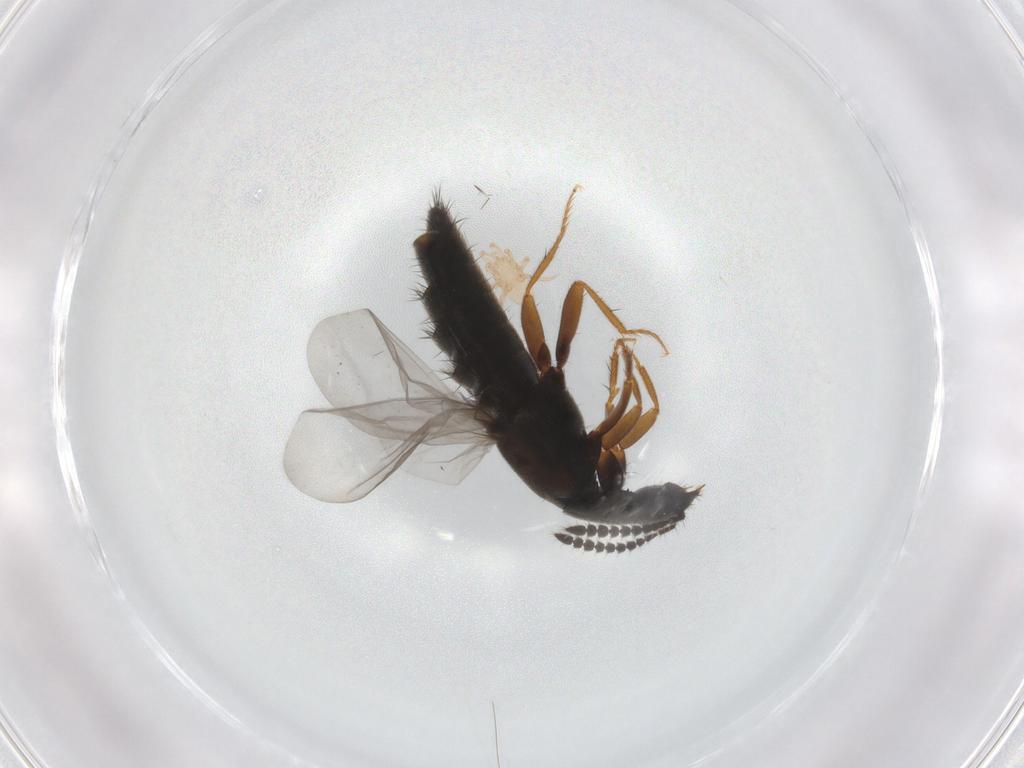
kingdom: Animalia
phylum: Arthropoda
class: Arachnida
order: Mesostigmata
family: Melicharidae
